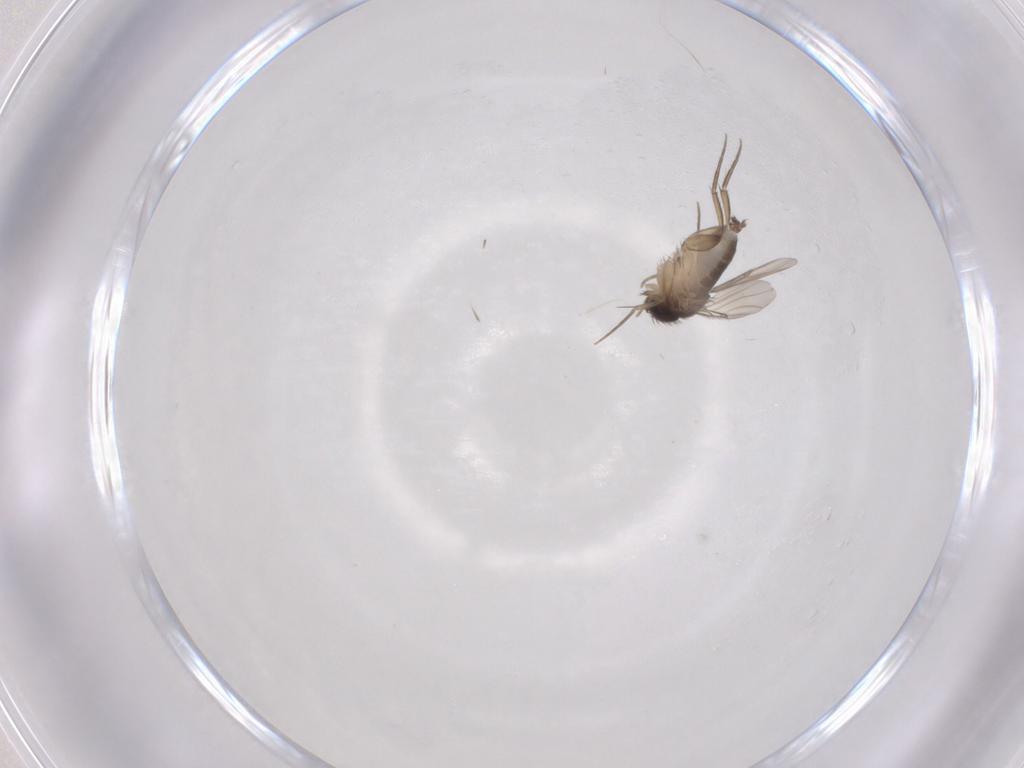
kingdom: Animalia
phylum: Arthropoda
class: Insecta
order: Diptera
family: Phoridae
